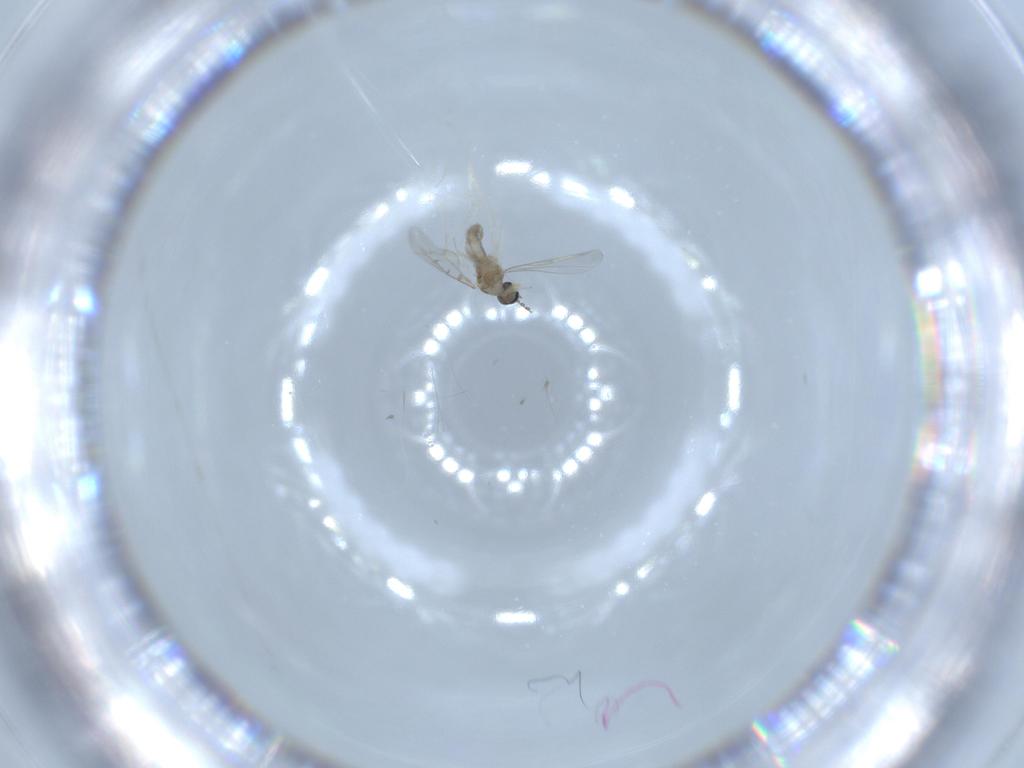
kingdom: Animalia
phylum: Arthropoda
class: Insecta
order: Diptera
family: Cecidomyiidae
